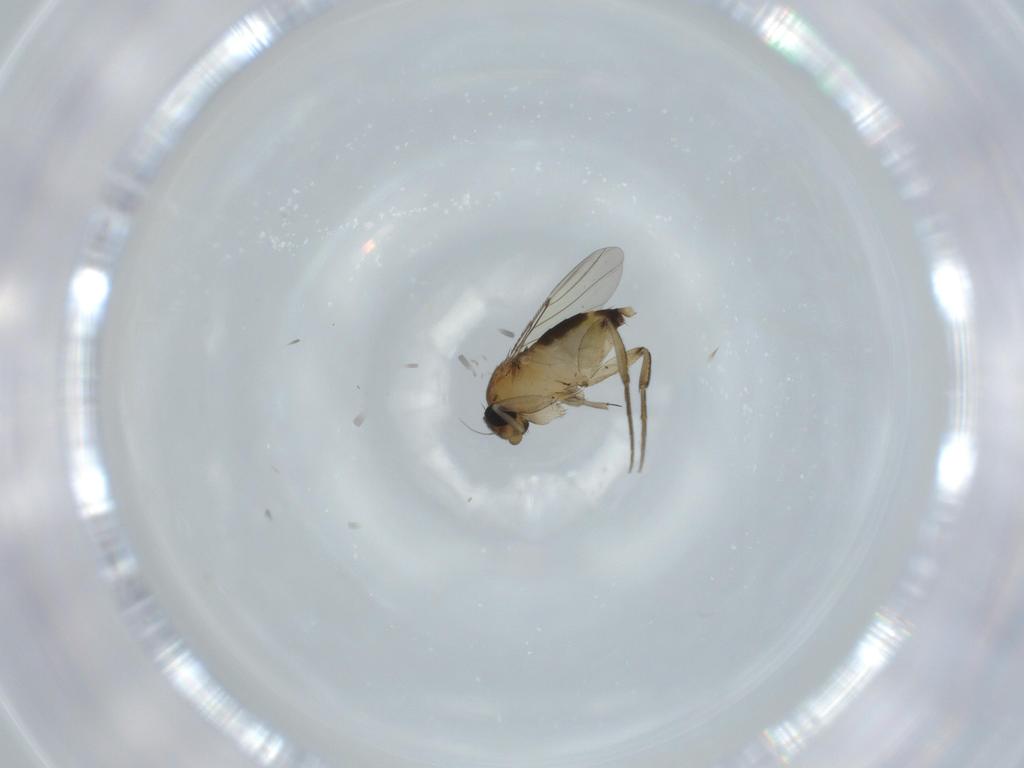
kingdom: Animalia
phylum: Arthropoda
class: Insecta
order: Diptera
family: Phoridae
